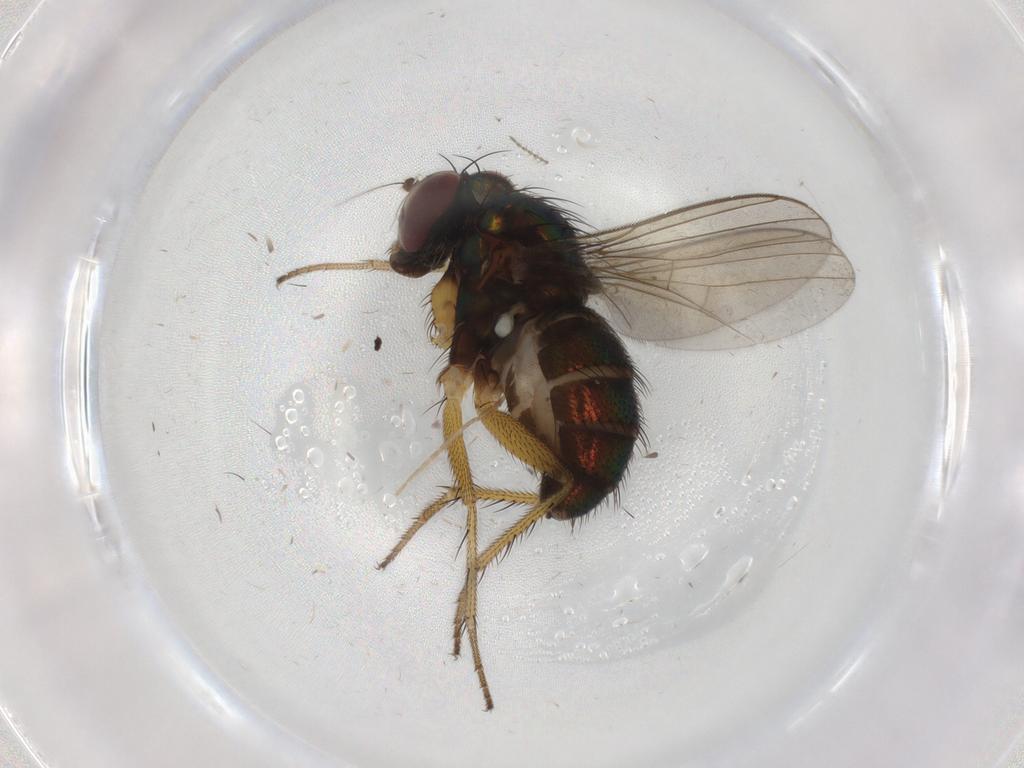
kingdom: Animalia
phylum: Arthropoda
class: Insecta
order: Diptera
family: Dolichopodidae
